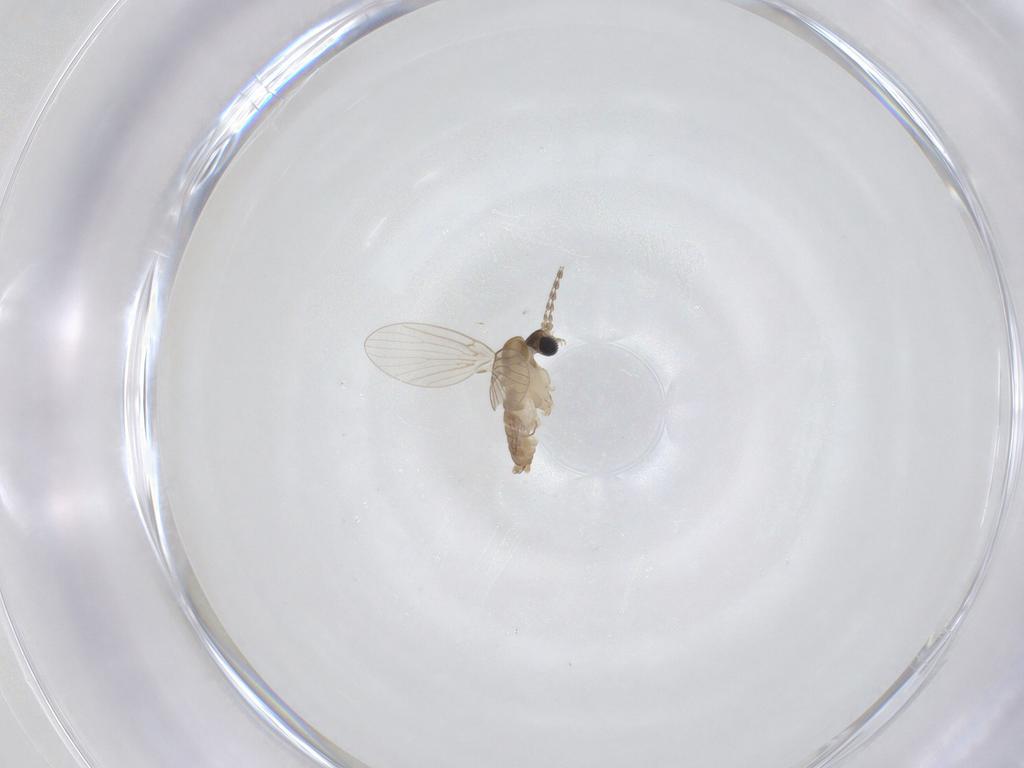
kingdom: Animalia
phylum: Arthropoda
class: Insecta
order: Diptera
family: Psychodidae
